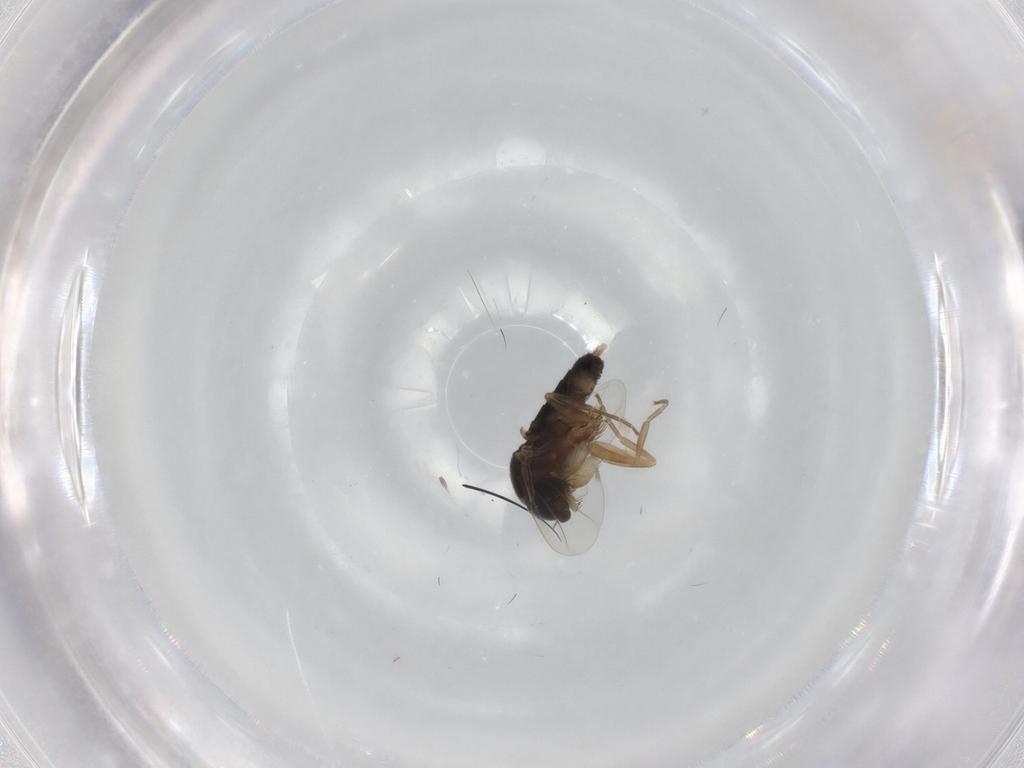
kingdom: Animalia
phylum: Arthropoda
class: Insecta
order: Diptera
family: Phoridae
